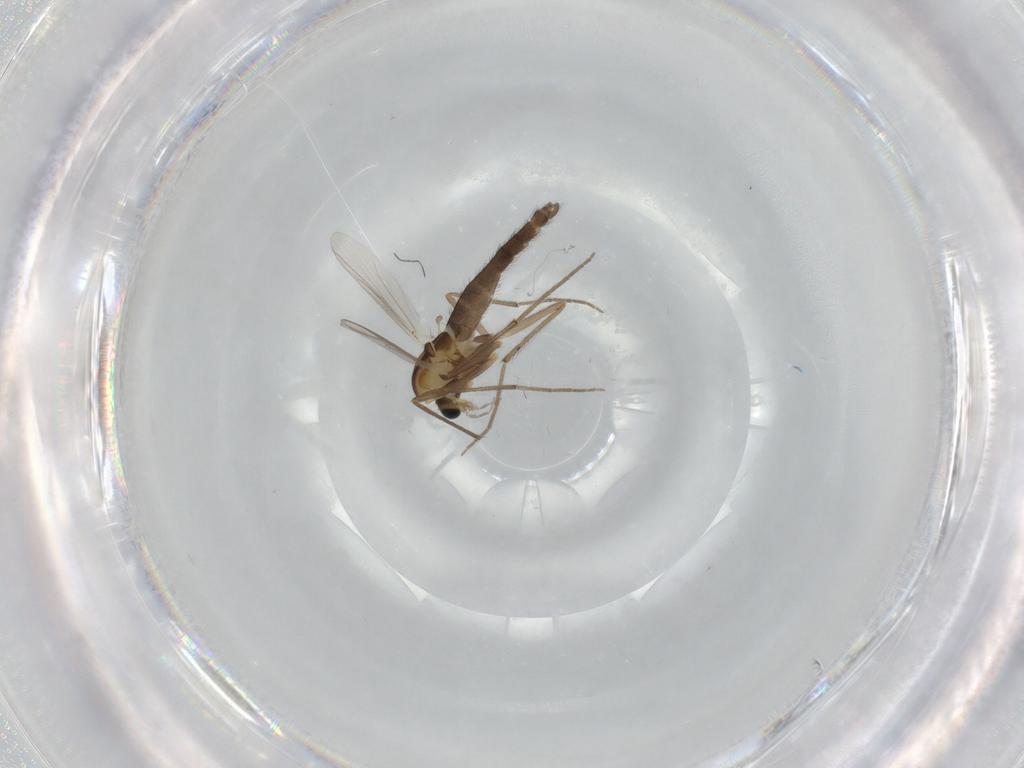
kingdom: Animalia
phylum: Arthropoda
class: Insecta
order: Diptera
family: Chironomidae
